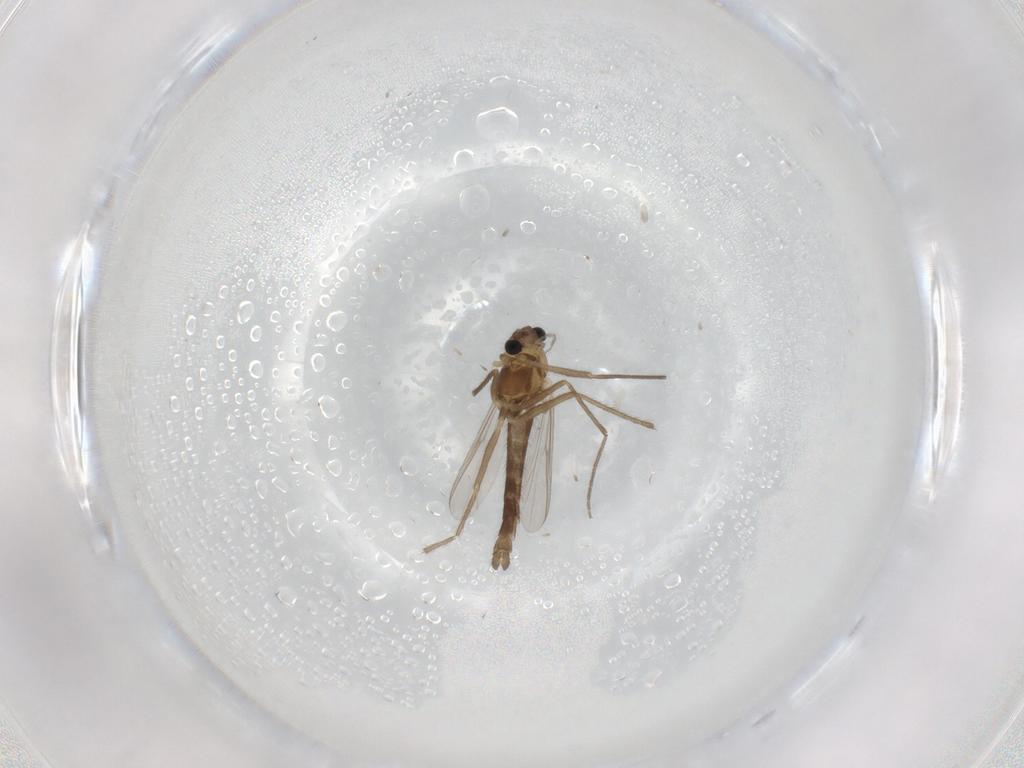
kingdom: Animalia
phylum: Arthropoda
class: Insecta
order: Diptera
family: Chironomidae
